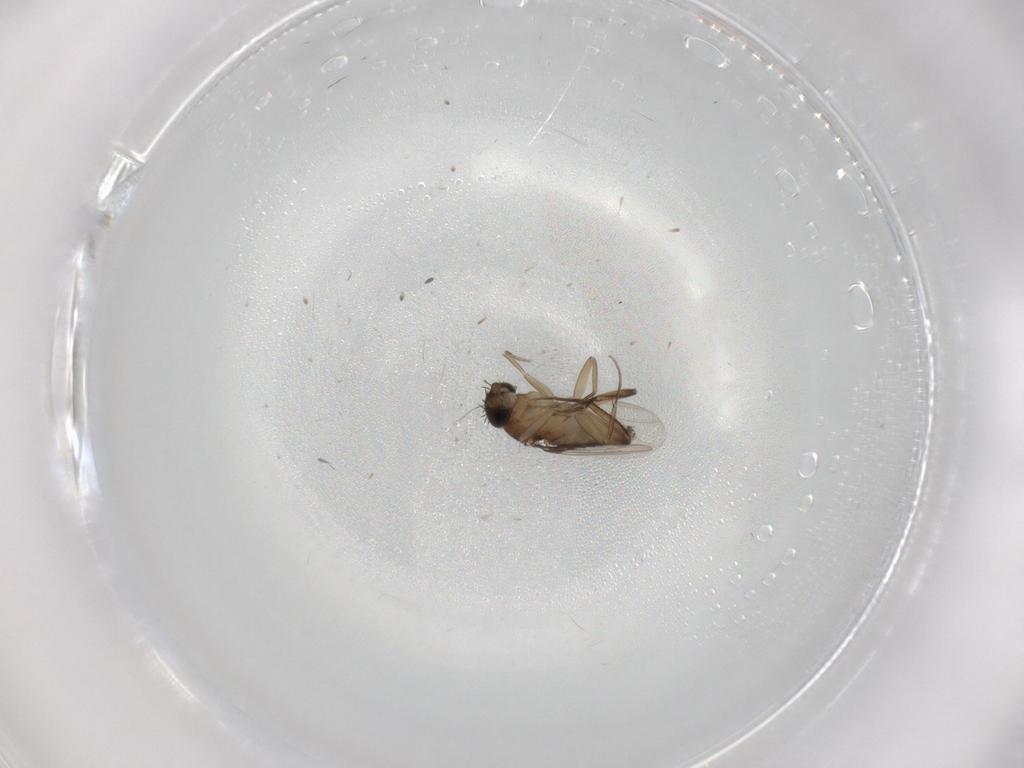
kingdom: Animalia
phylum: Arthropoda
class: Insecta
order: Diptera
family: Phoridae
